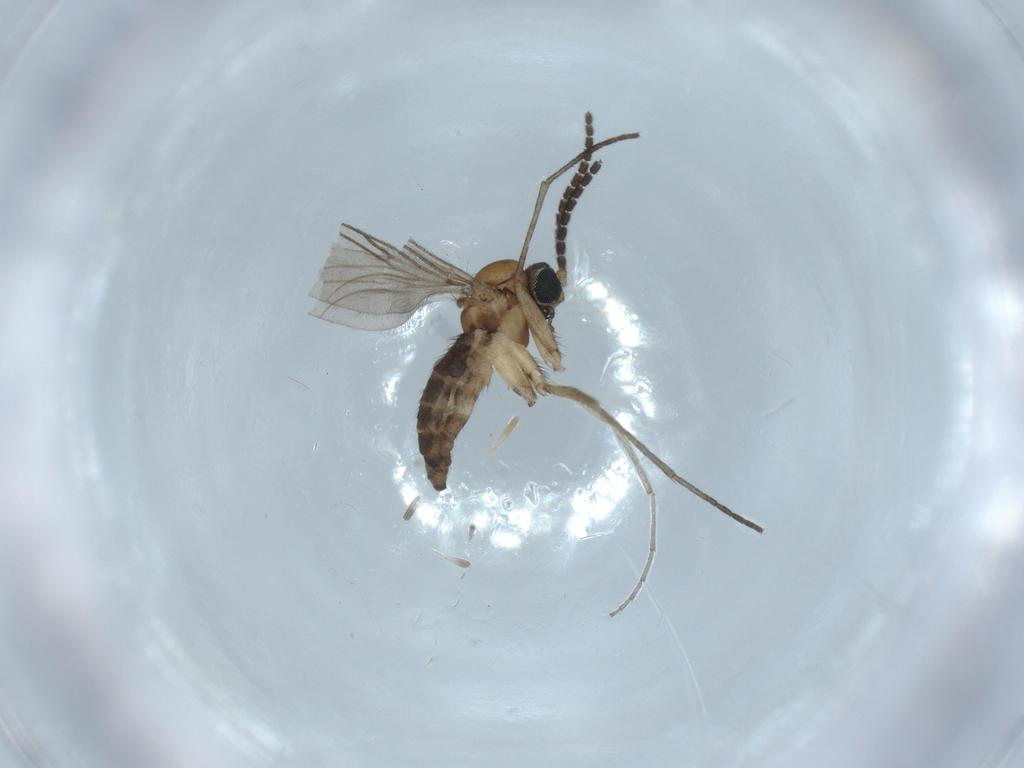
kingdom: Animalia
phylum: Arthropoda
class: Insecta
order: Diptera
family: Sciaridae
